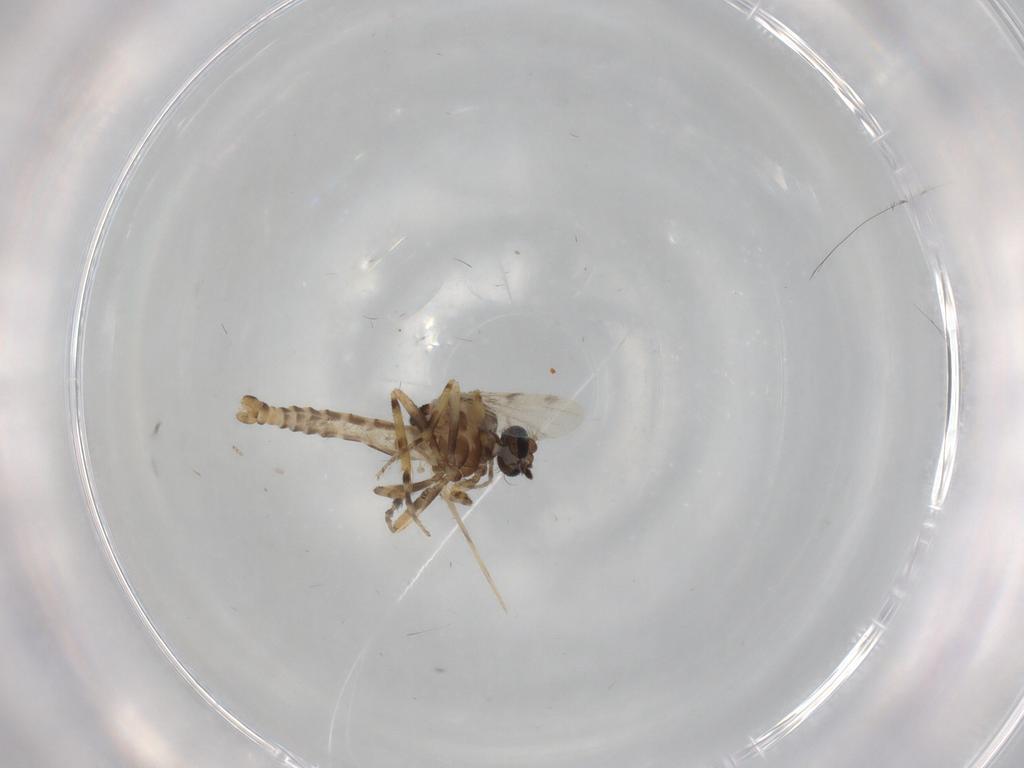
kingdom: Animalia
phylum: Arthropoda
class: Insecta
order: Diptera
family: Ceratopogonidae
